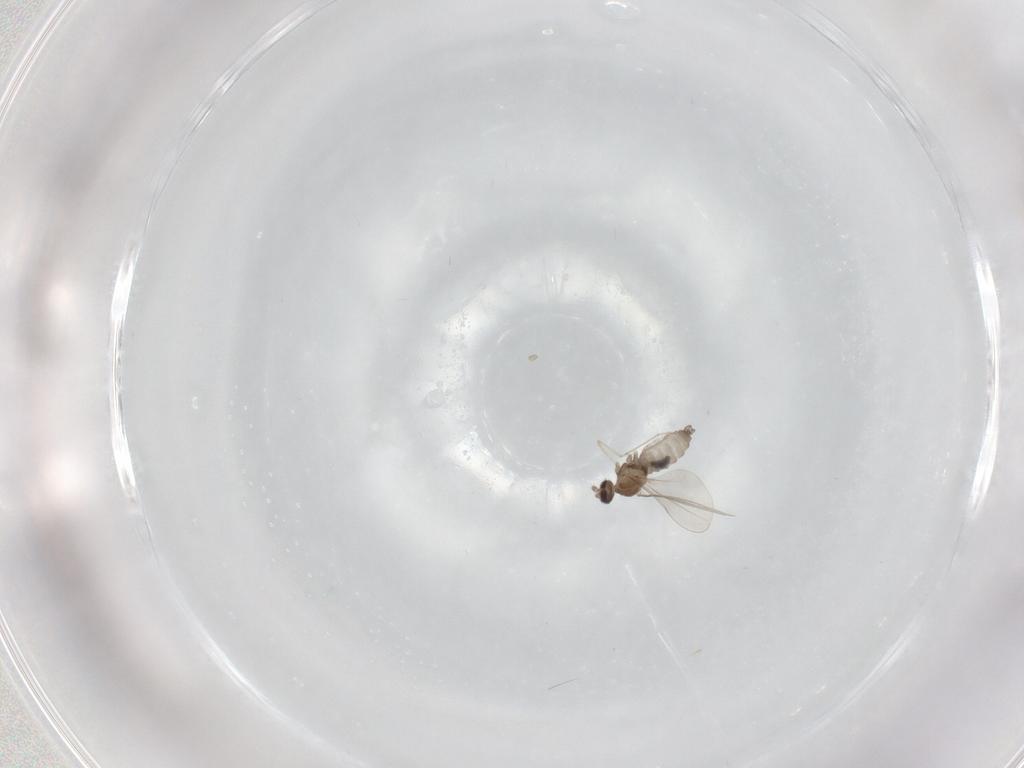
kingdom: Animalia
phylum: Arthropoda
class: Insecta
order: Diptera
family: Cecidomyiidae
